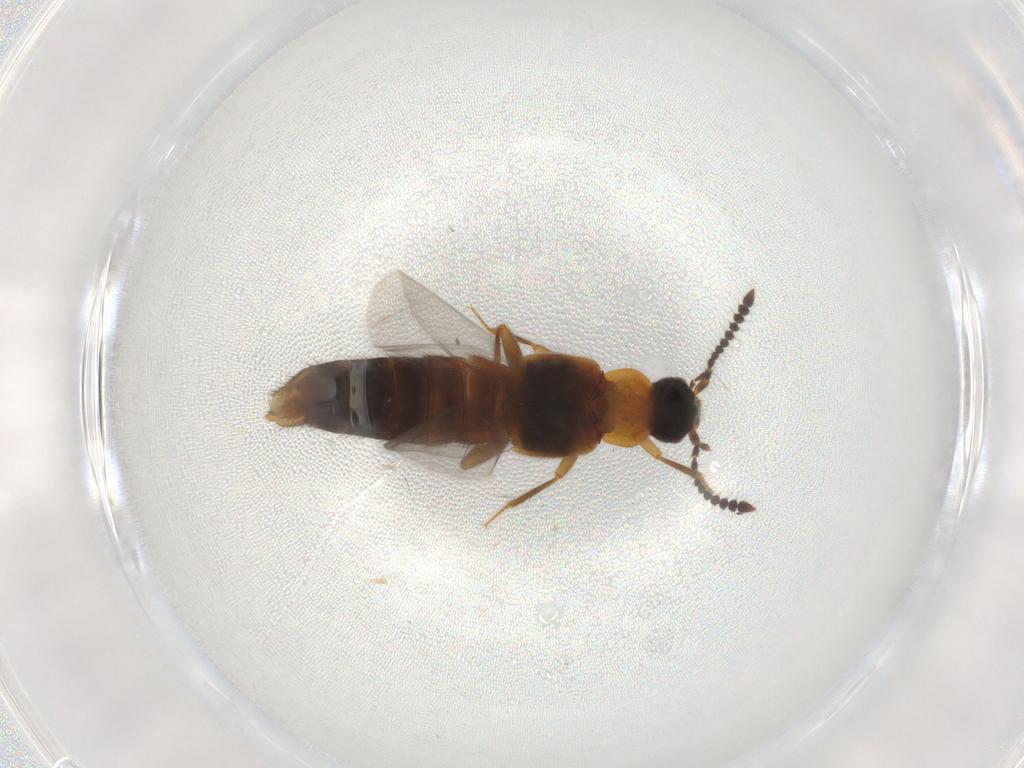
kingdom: Animalia
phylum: Arthropoda
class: Insecta
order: Coleoptera
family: Staphylinidae
